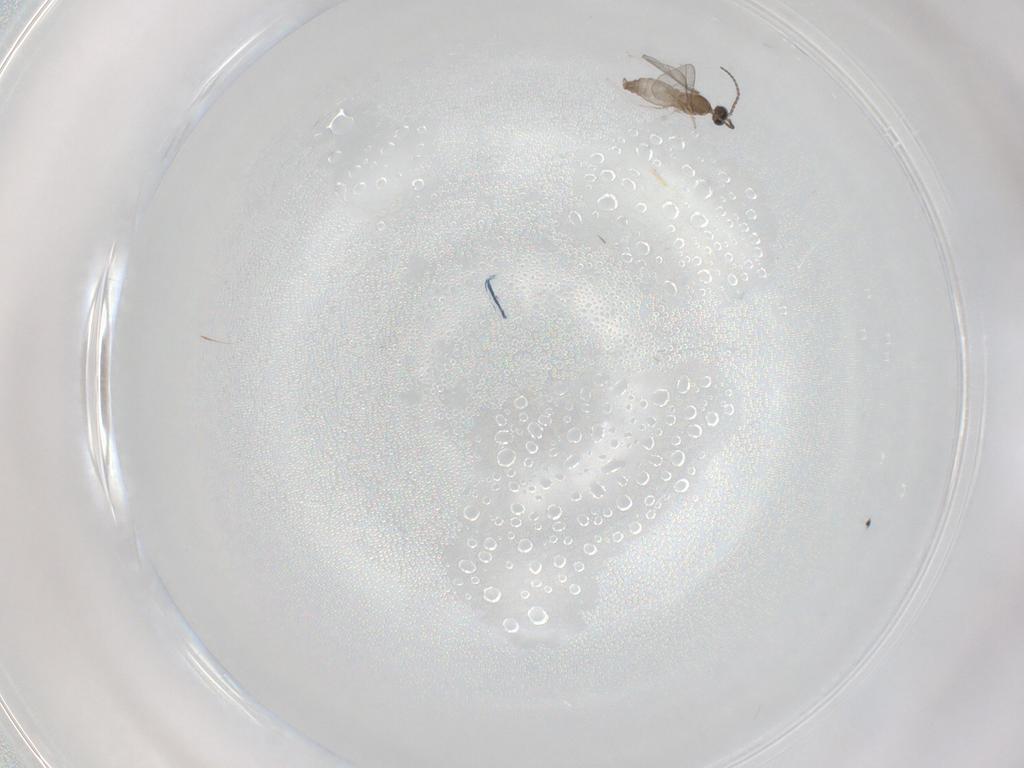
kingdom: Animalia
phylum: Arthropoda
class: Insecta
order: Diptera
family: Cecidomyiidae
